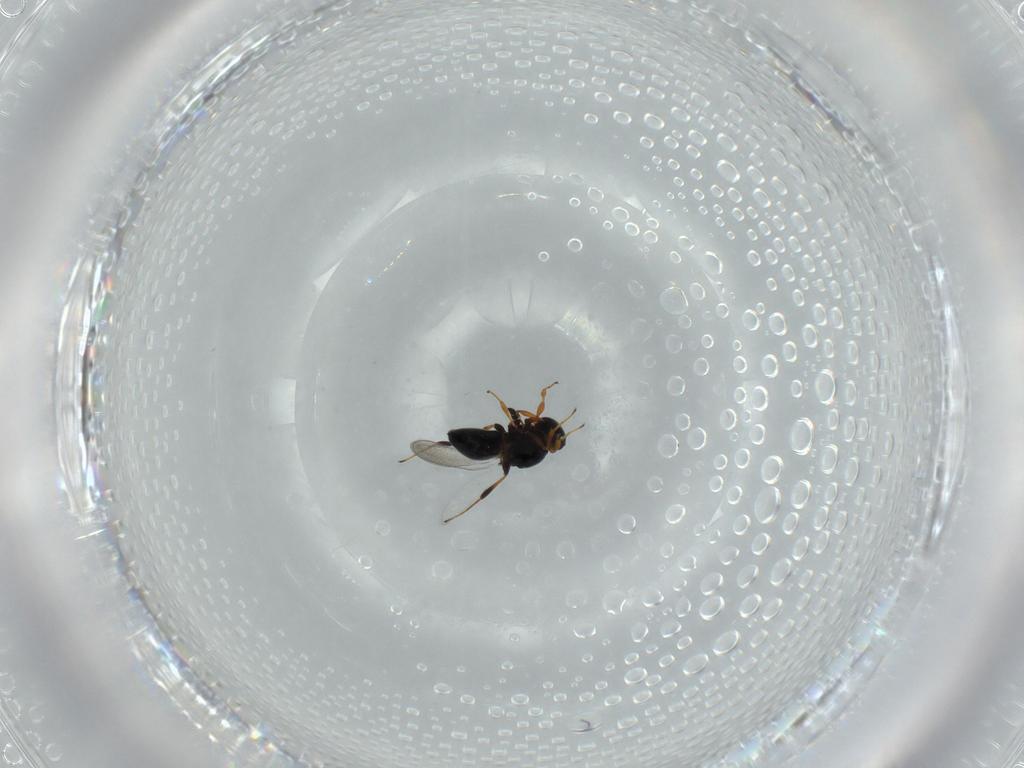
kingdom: Animalia
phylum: Arthropoda
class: Insecta
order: Hymenoptera
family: Platygastridae
